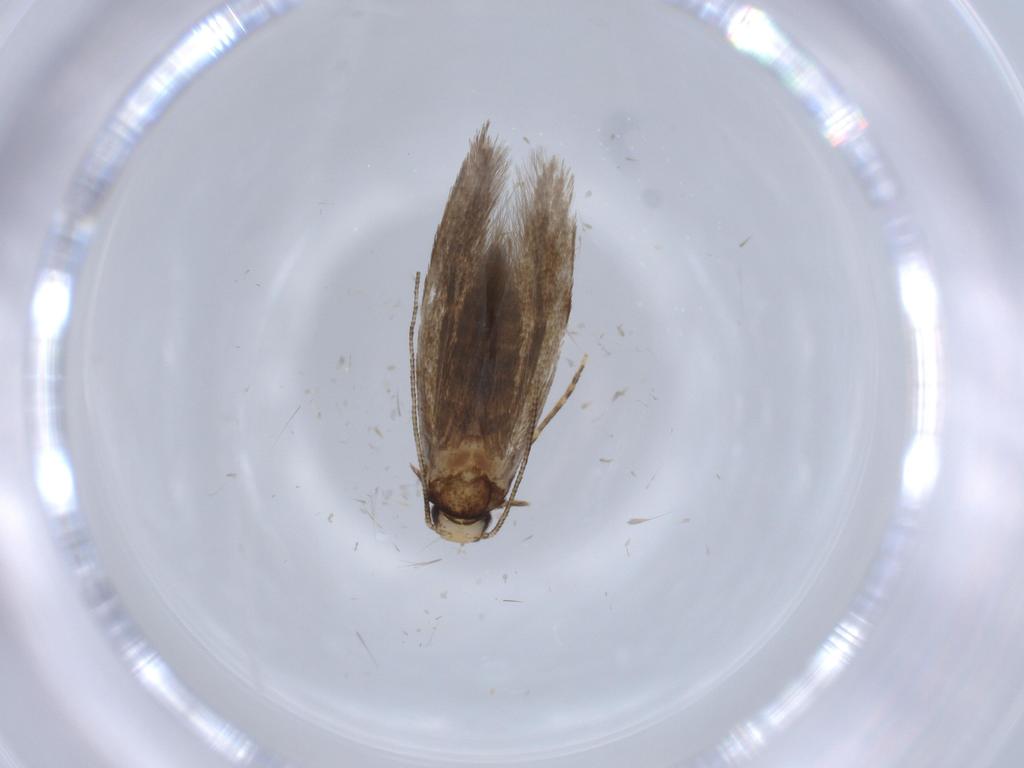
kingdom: Animalia
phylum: Arthropoda
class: Insecta
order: Lepidoptera
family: Tineidae
